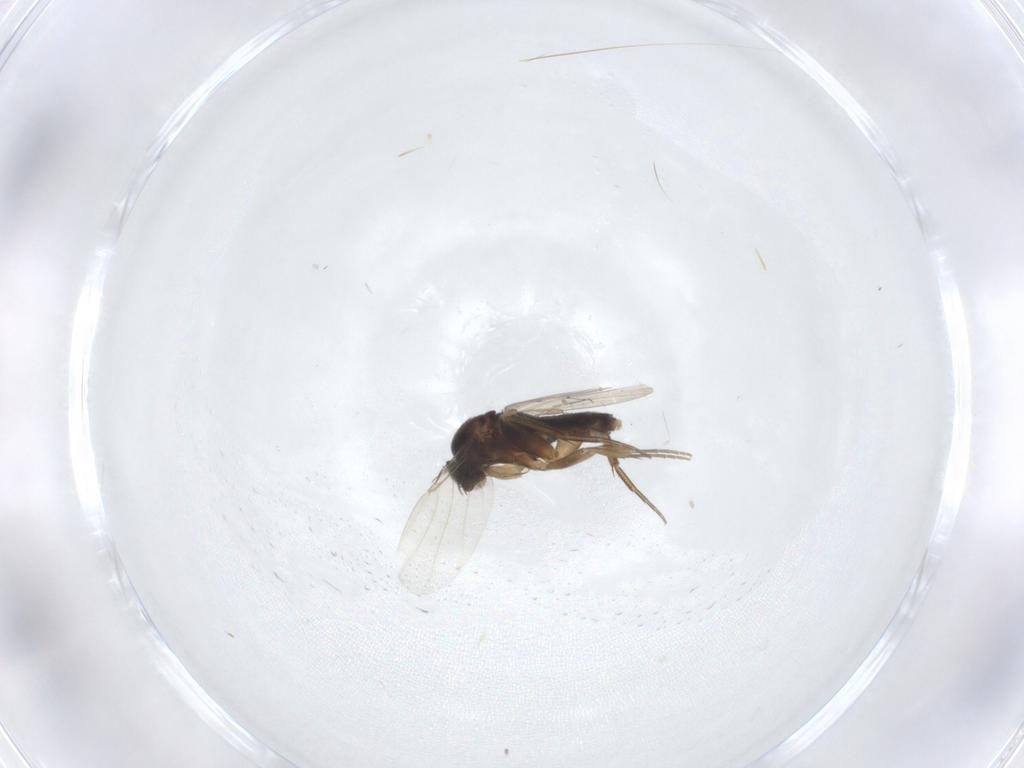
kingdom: Animalia
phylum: Arthropoda
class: Insecta
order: Diptera
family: Phoridae
